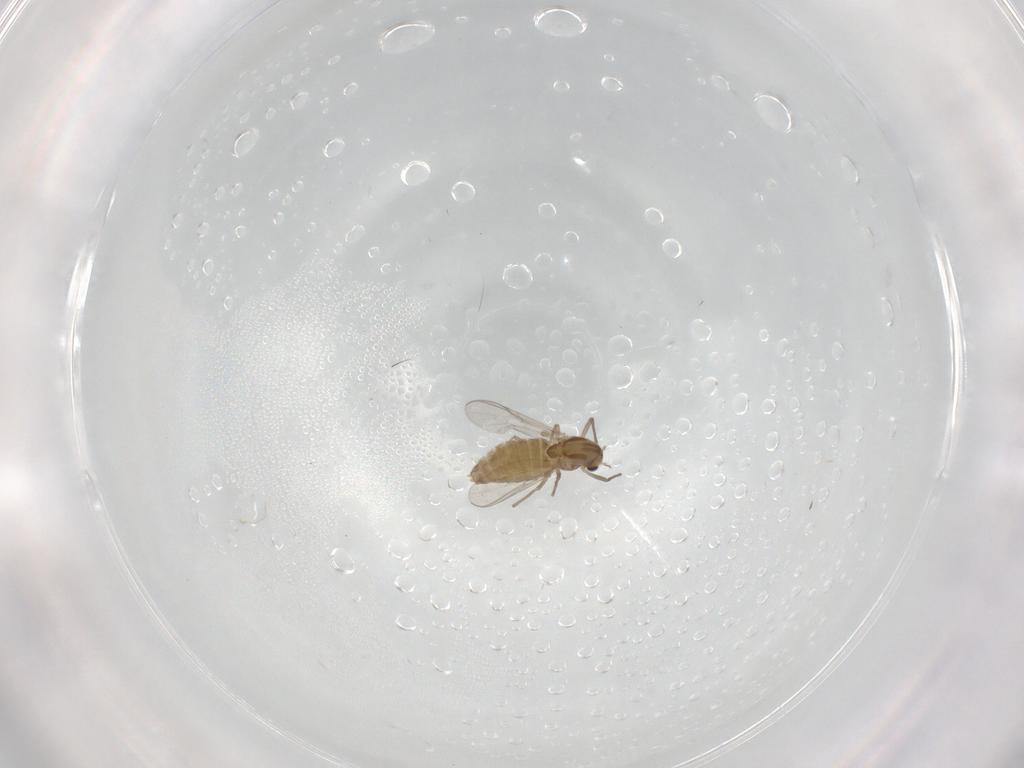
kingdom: Animalia
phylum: Arthropoda
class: Insecta
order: Diptera
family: Chironomidae
